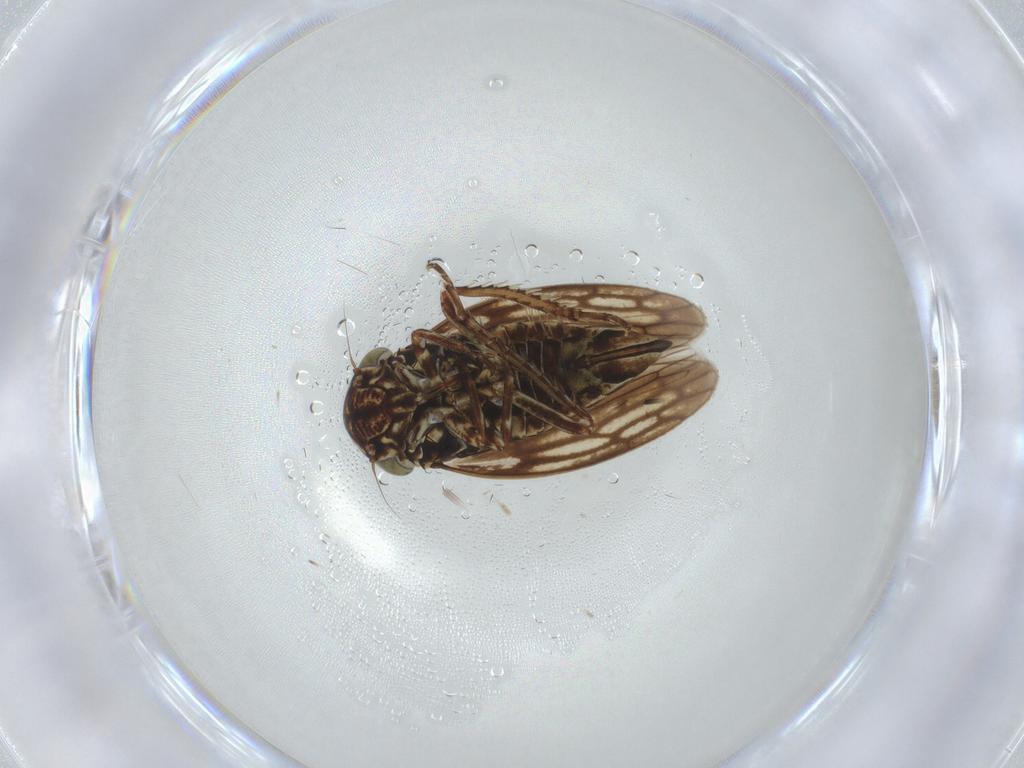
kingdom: Animalia
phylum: Arthropoda
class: Insecta
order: Hemiptera
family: Cicadellidae
